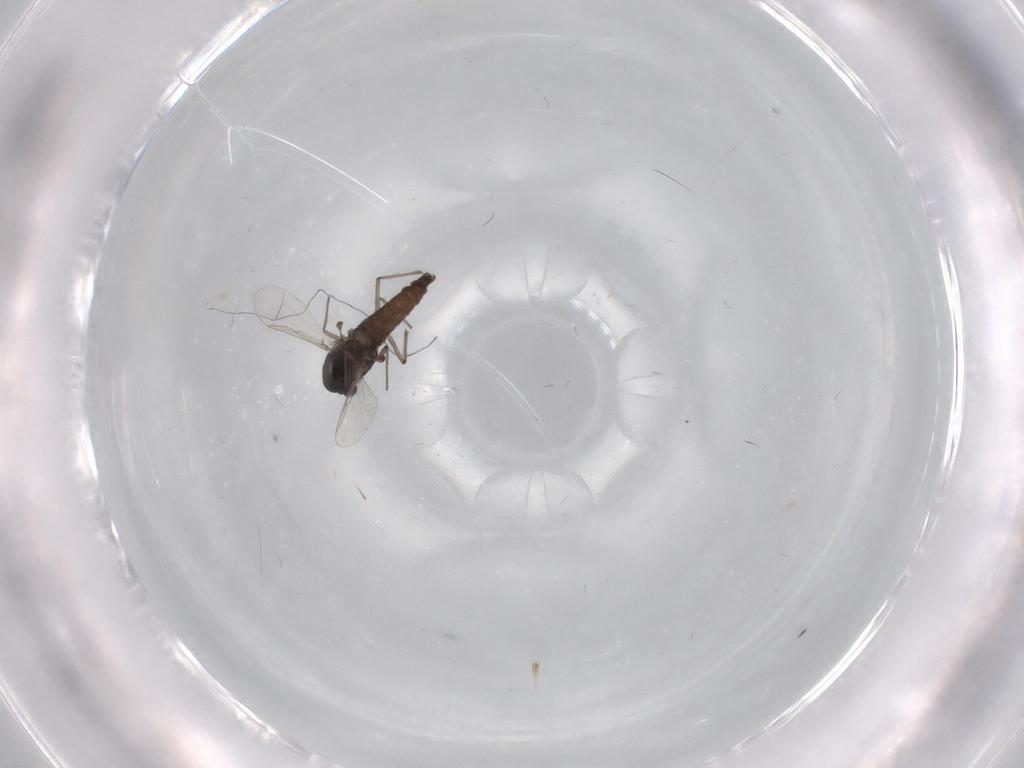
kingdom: Animalia
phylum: Arthropoda
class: Insecta
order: Diptera
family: Chironomidae
